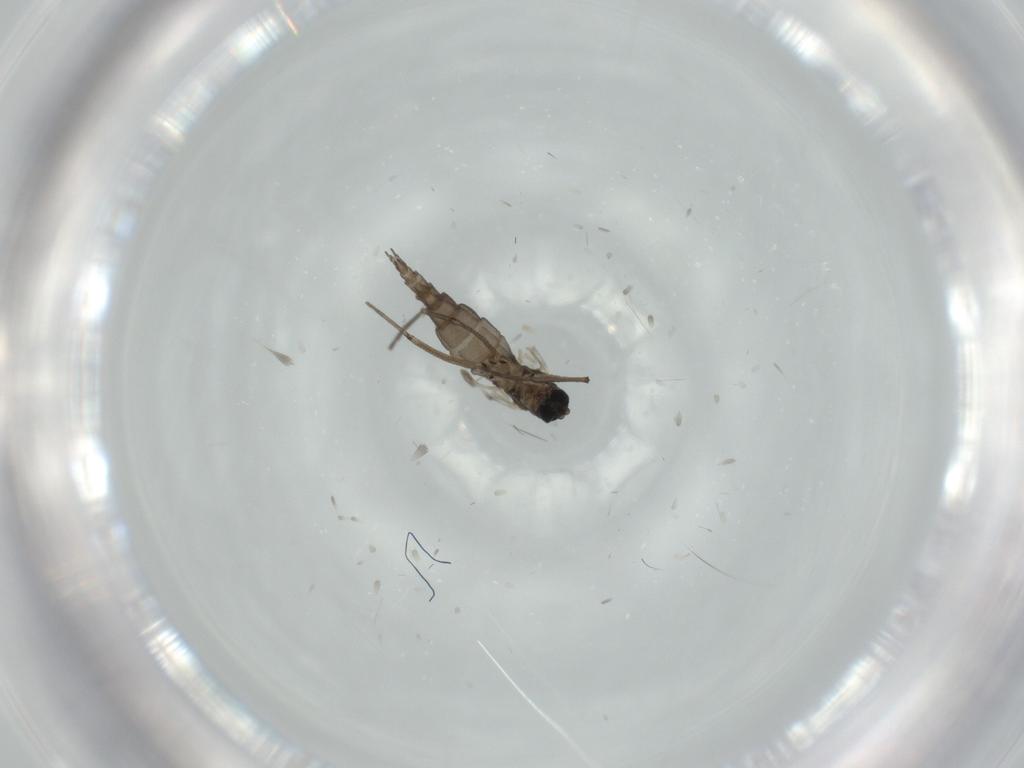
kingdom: Animalia
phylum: Arthropoda
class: Insecta
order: Diptera
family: Sciaridae
